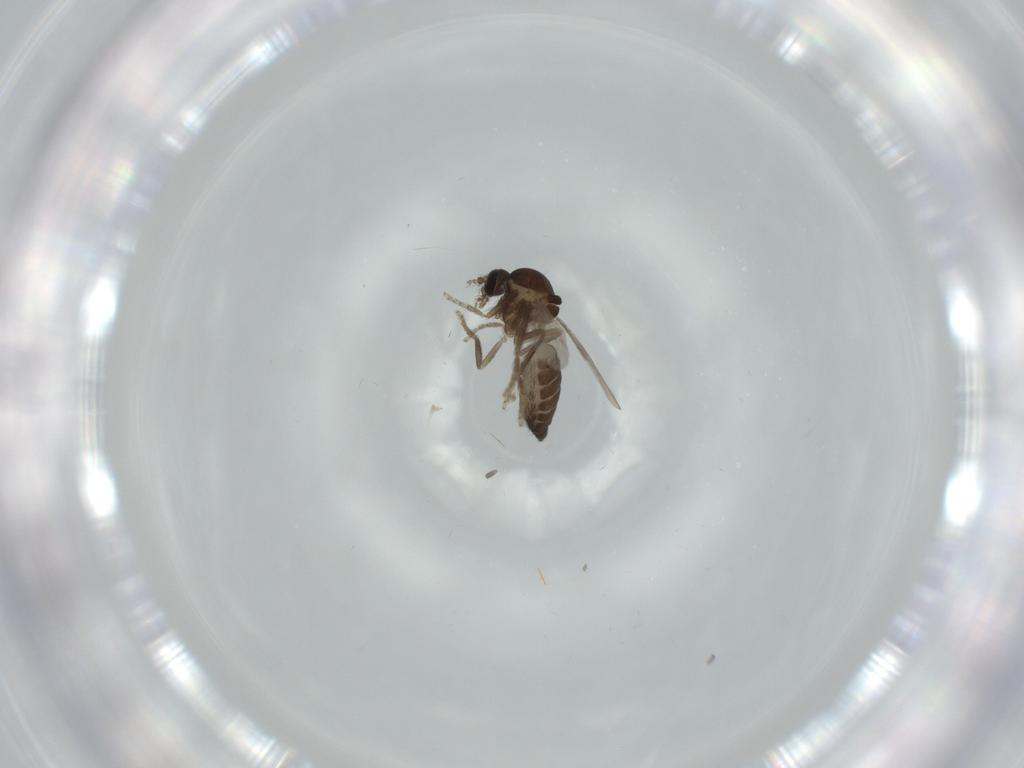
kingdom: Animalia
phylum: Arthropoda
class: Insecta
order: Diptera
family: Ceratopogonidae
